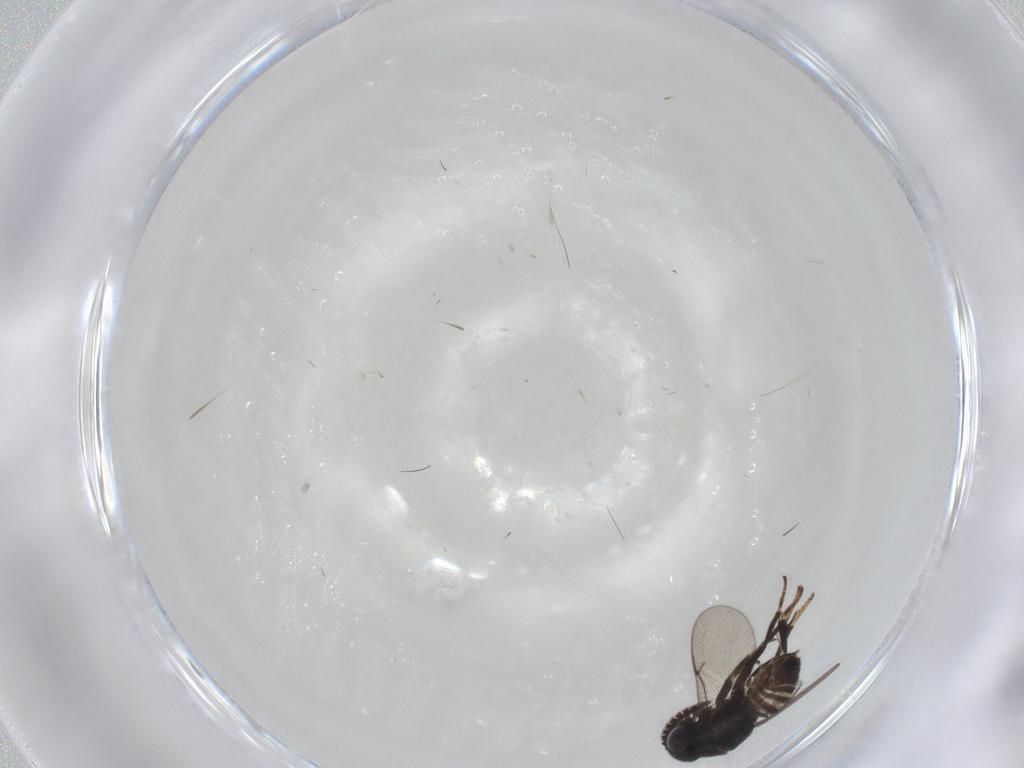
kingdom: Animalia
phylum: Arthropoda
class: Insecta
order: Hymenoptera
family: Encyrtidae
